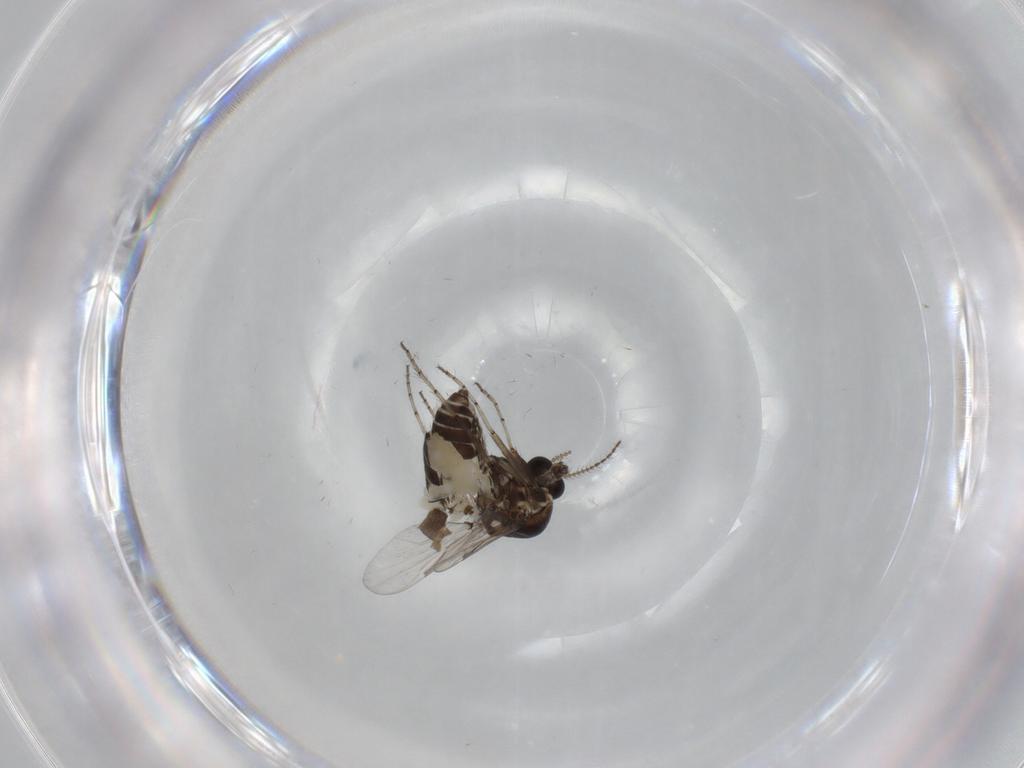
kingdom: Animalia
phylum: Arthropoda
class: Insecta
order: Diptera
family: Ceratopogonidae
